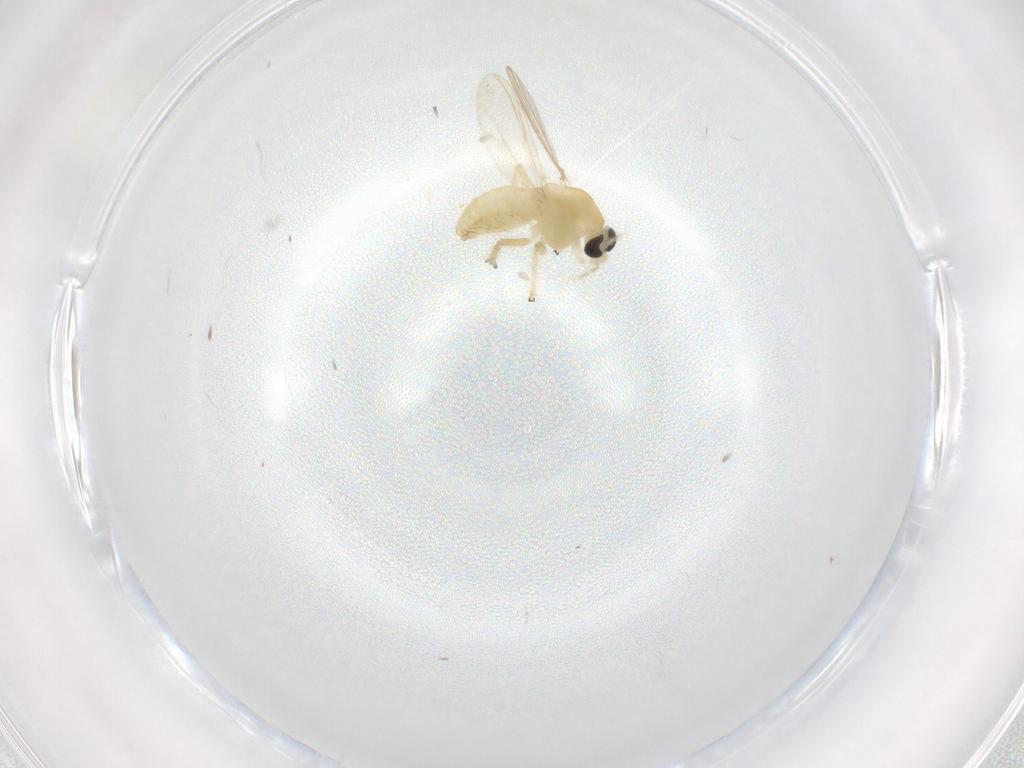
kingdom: Animalia
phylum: Arthropoda
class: Insecta
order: Diptera
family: Chironomidae
